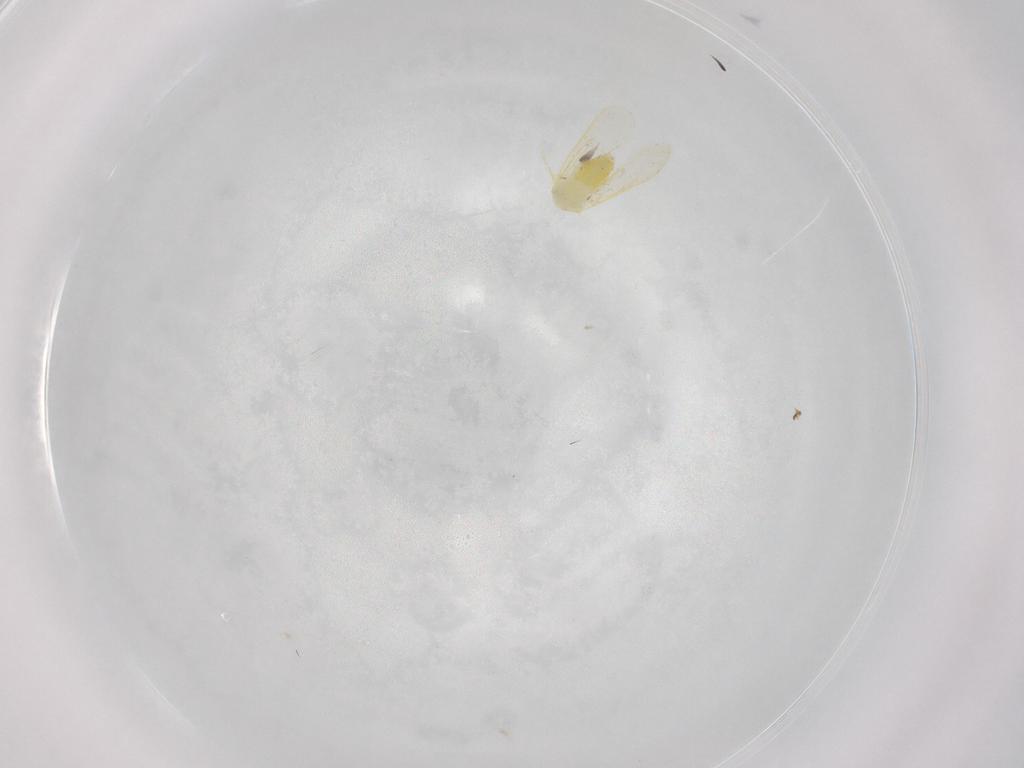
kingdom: Animalia
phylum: Arthropoda
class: Insecta
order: Hemiptera
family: Aleyrodidae
